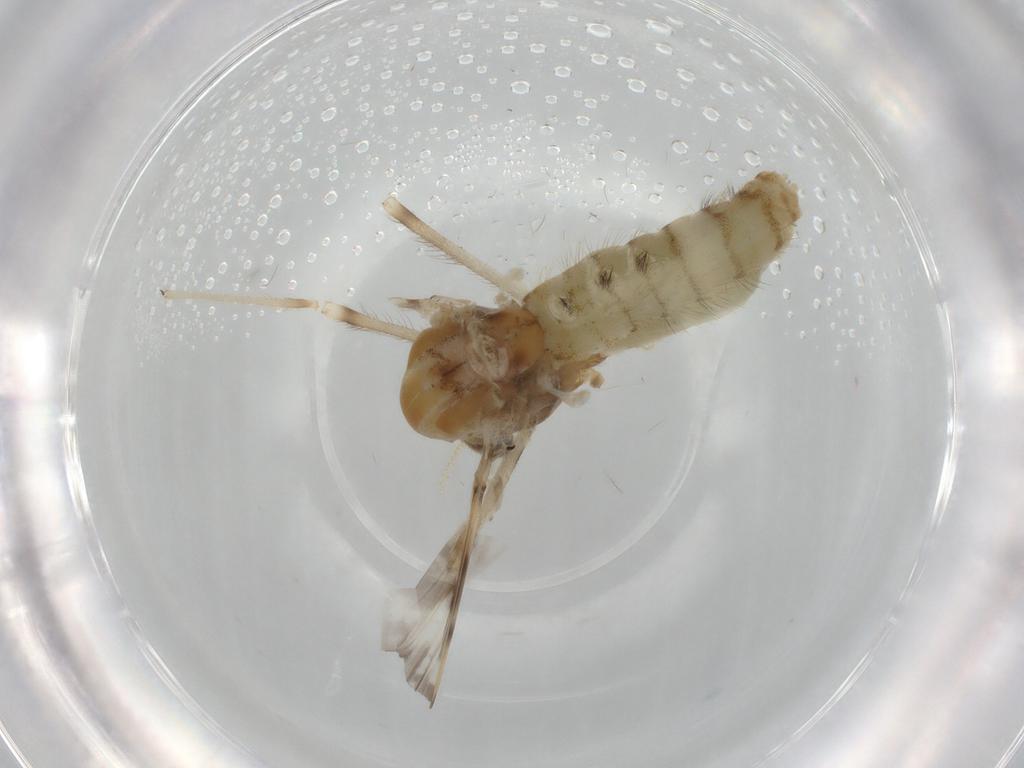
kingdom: Animalia
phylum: Arthropoda
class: Insecta
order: Diptera
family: Chironomidae
